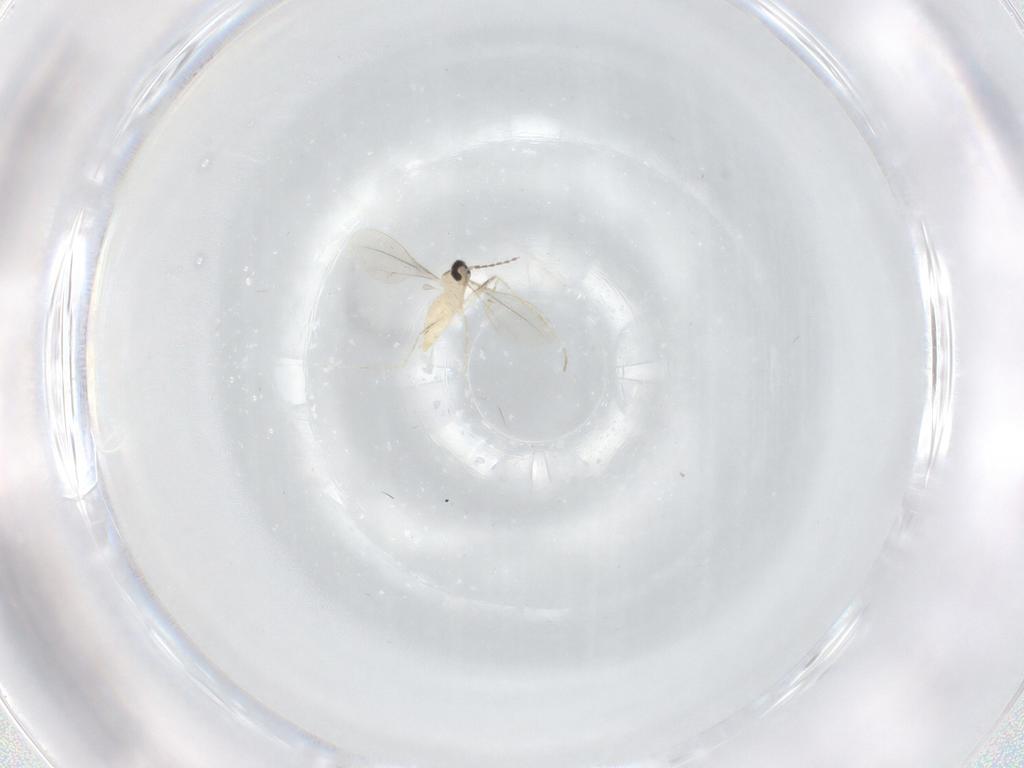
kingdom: Animalia
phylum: Arthropoda
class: Insecta
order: Diptera
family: Phoridae
